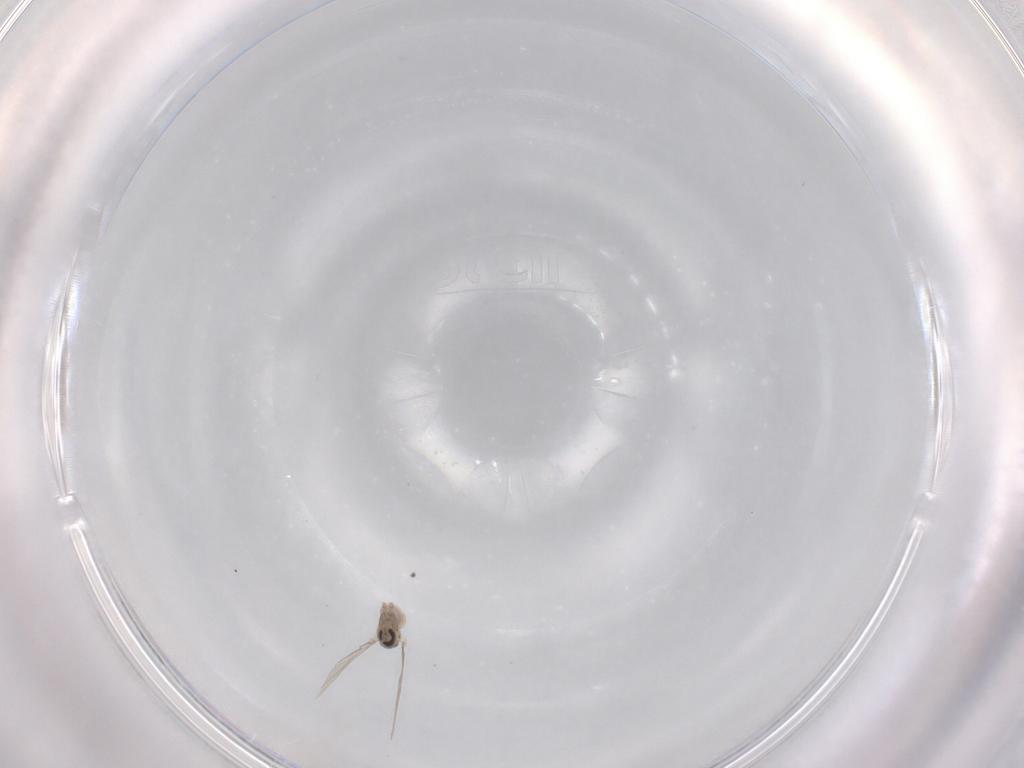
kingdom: Animalia
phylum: Arthropoda
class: Insecta
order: Diptera
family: Cecidomyiidae
